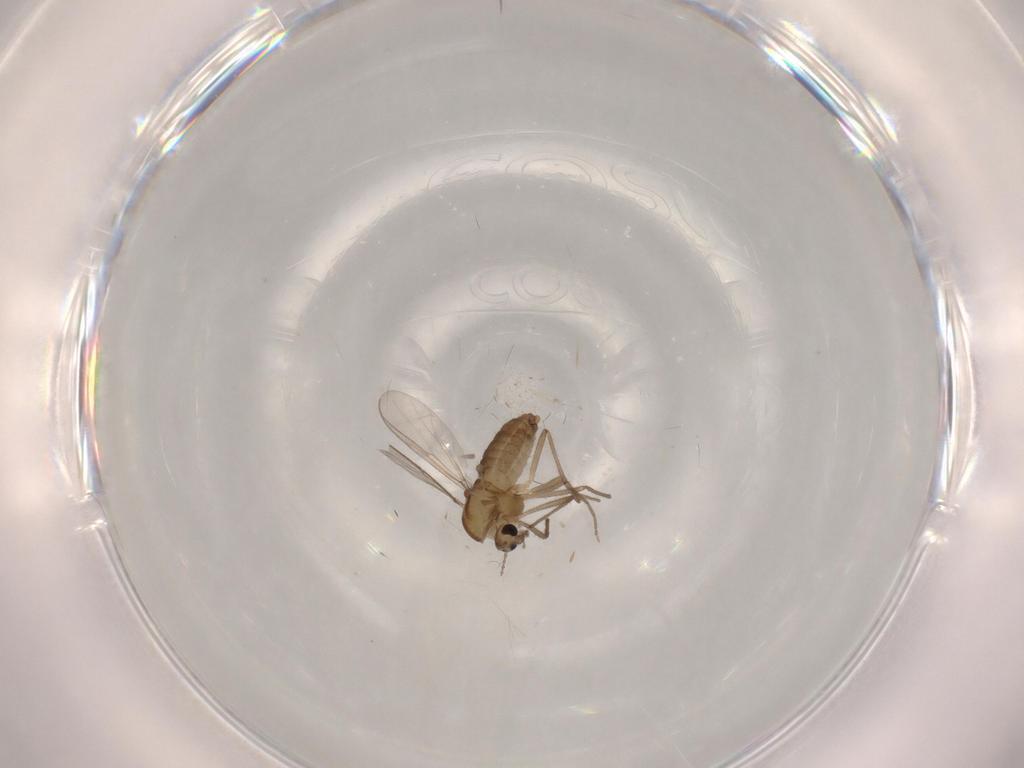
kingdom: Animalia
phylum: Arthropoda
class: Insecta
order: Diptera
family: Chironomidae
